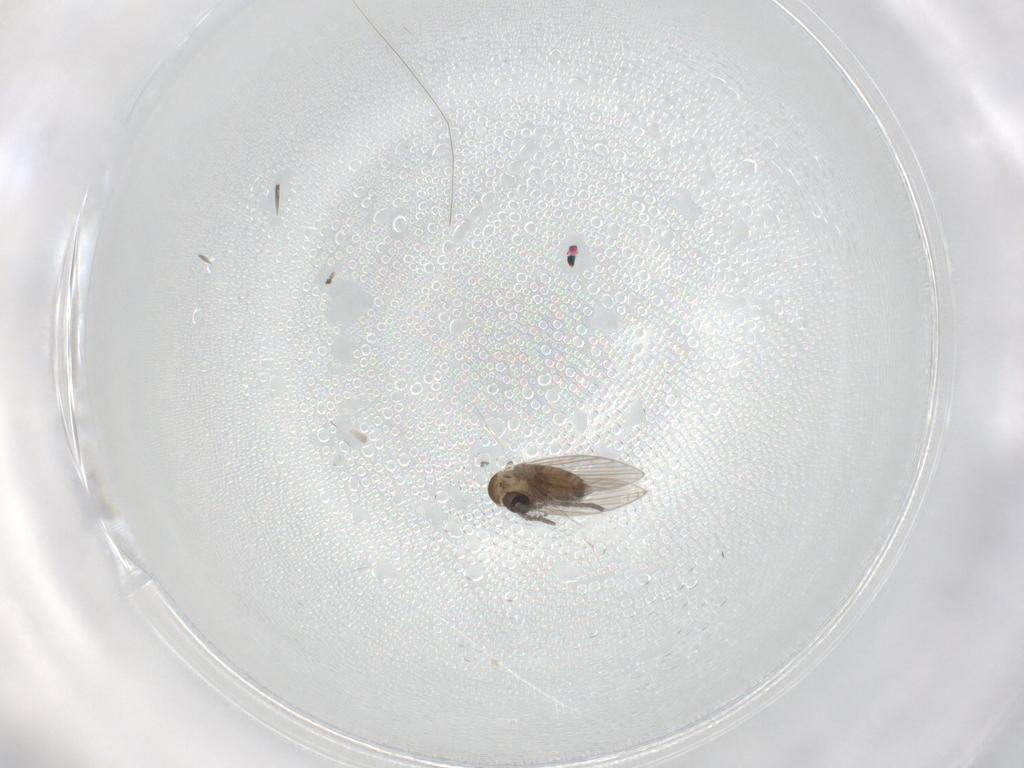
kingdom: Animalia
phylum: Arthropoda
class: Insecta
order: Diptera
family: Psychodidae
